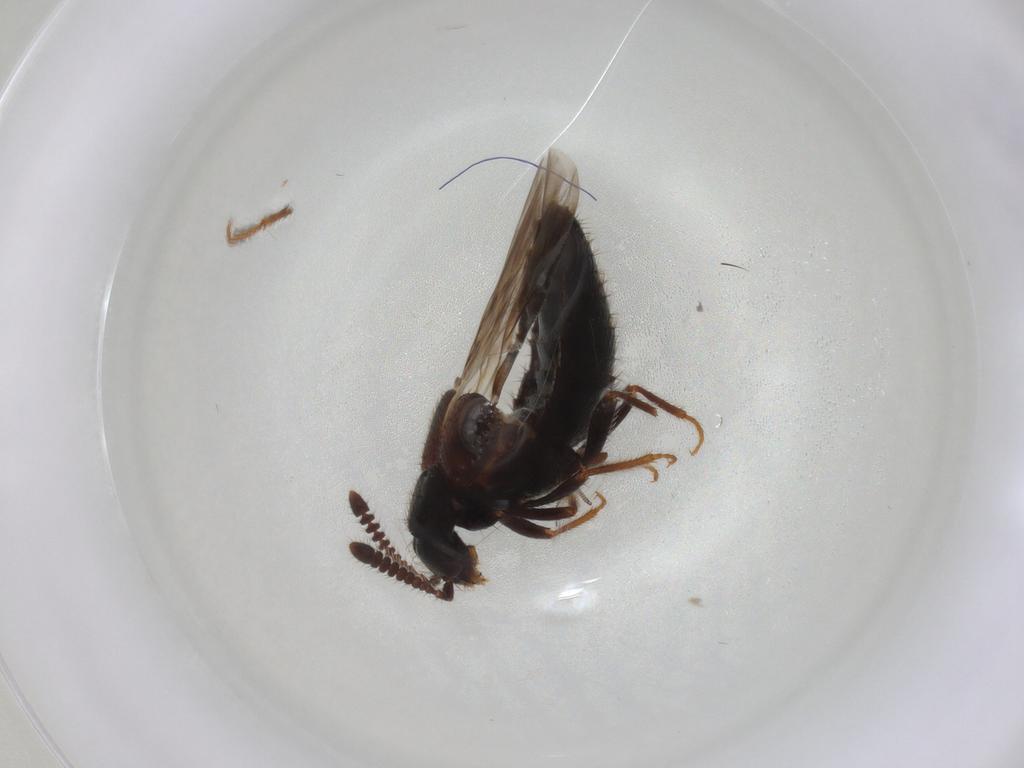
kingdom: Animalia
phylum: Arthropoda
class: Insecta
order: Coleoptera
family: Staphylinidae
